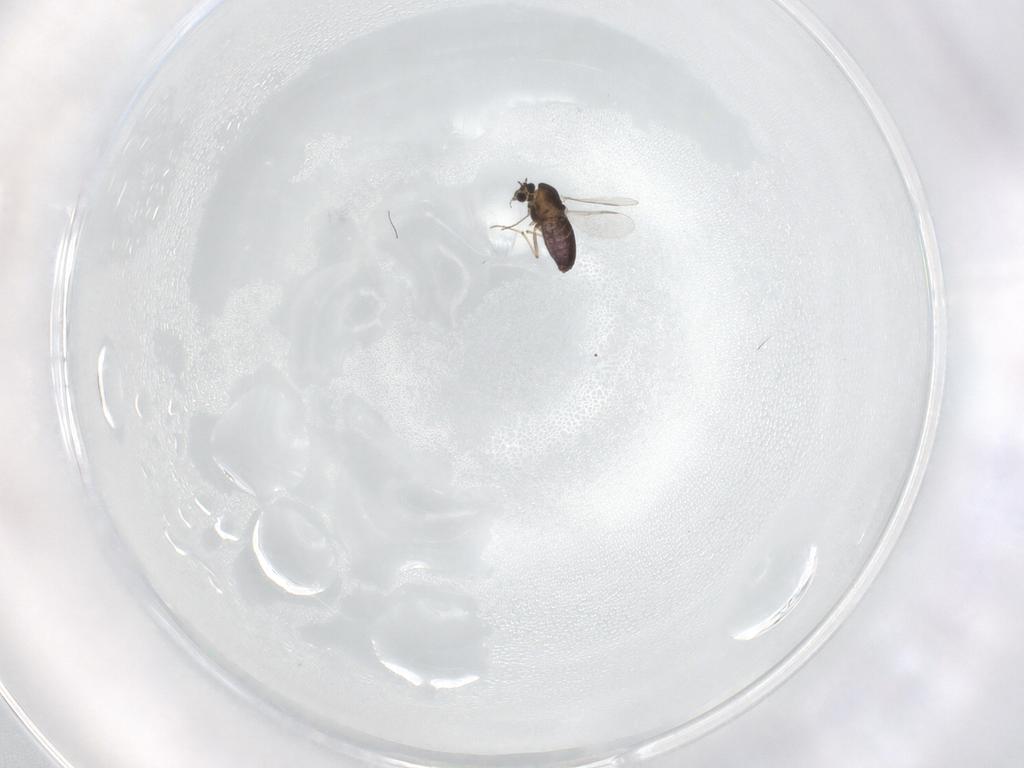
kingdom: Animalia
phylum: Arthropoda
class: Insecta
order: Diptera
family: Chironomidae
